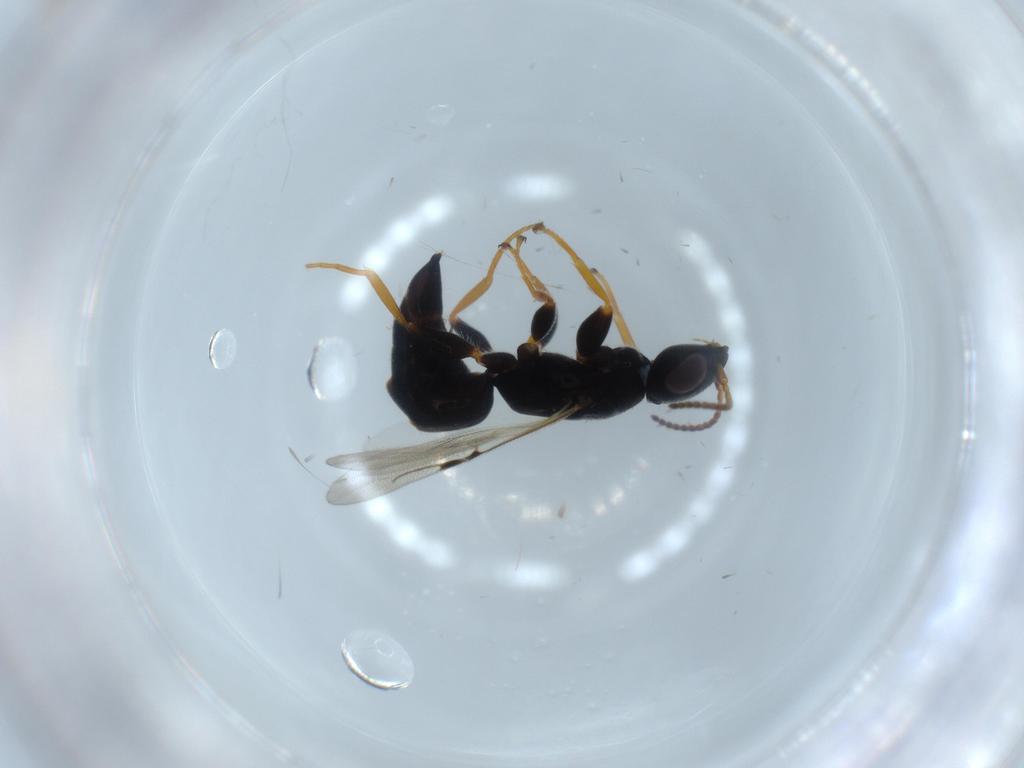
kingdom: Animalia
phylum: Arthropoda
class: Insecta
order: Hymenoptera
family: Bethylidae
